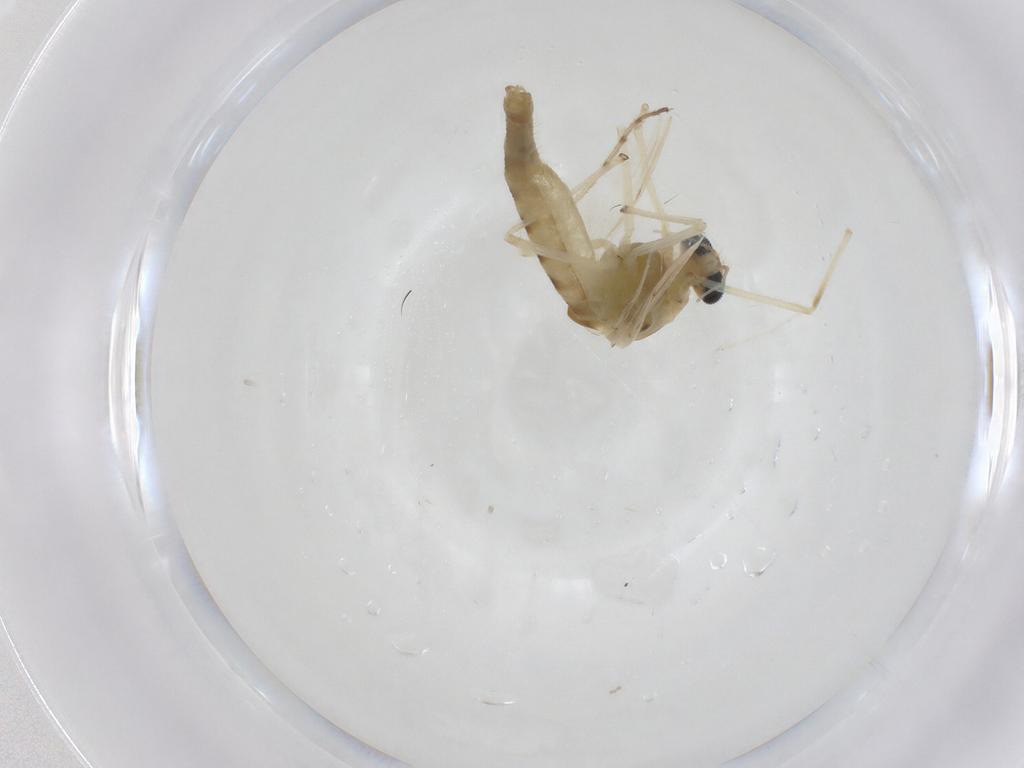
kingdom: Animalia
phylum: Arthropoda
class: Insecta
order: Diptera
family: Chironomidae
